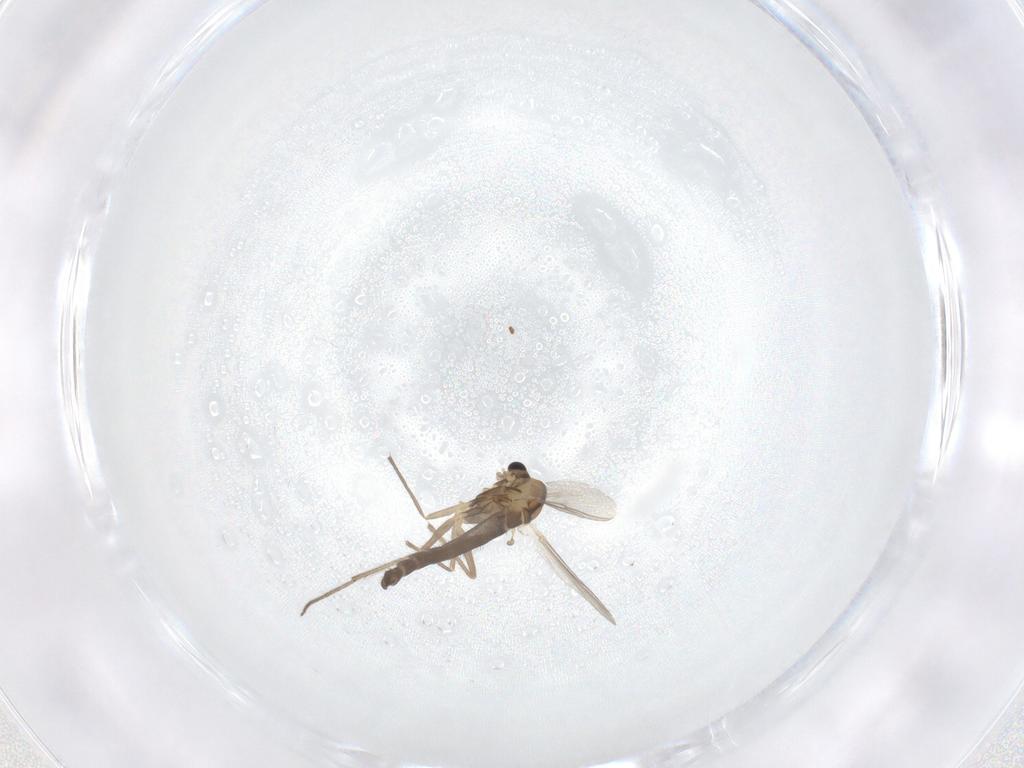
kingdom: Animalia
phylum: Arthropoda
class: Insecta
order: Diptera
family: Chironomidae
